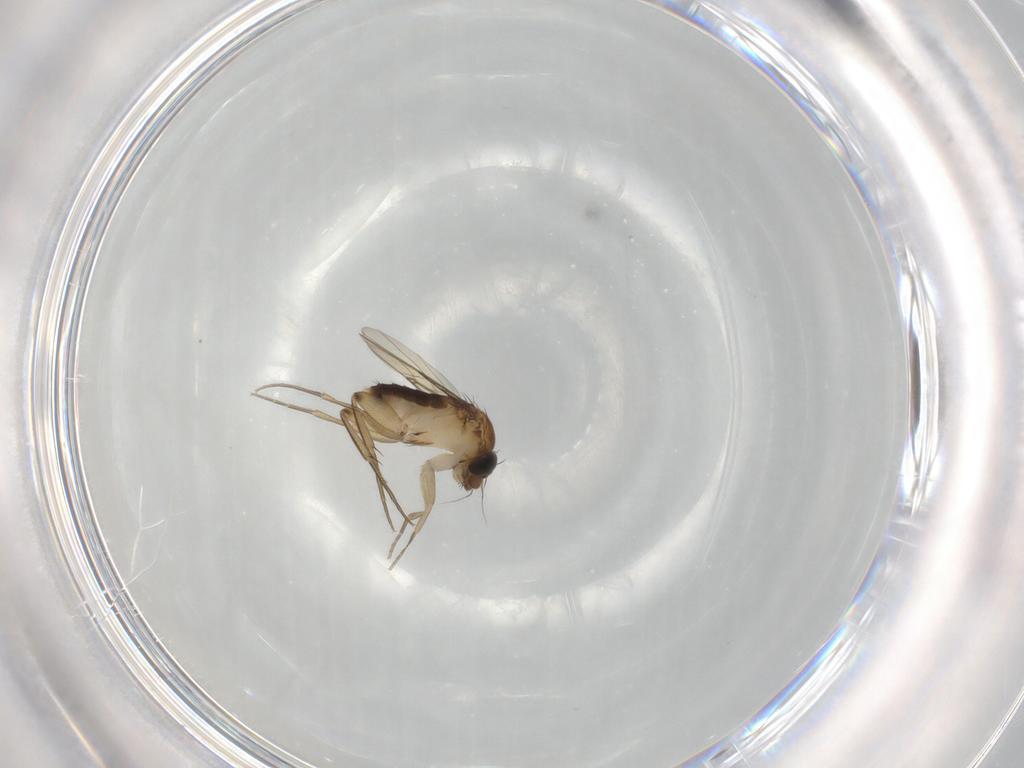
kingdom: Animalia
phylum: Arthropoda
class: Insecta
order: Diptera
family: Phoridae
